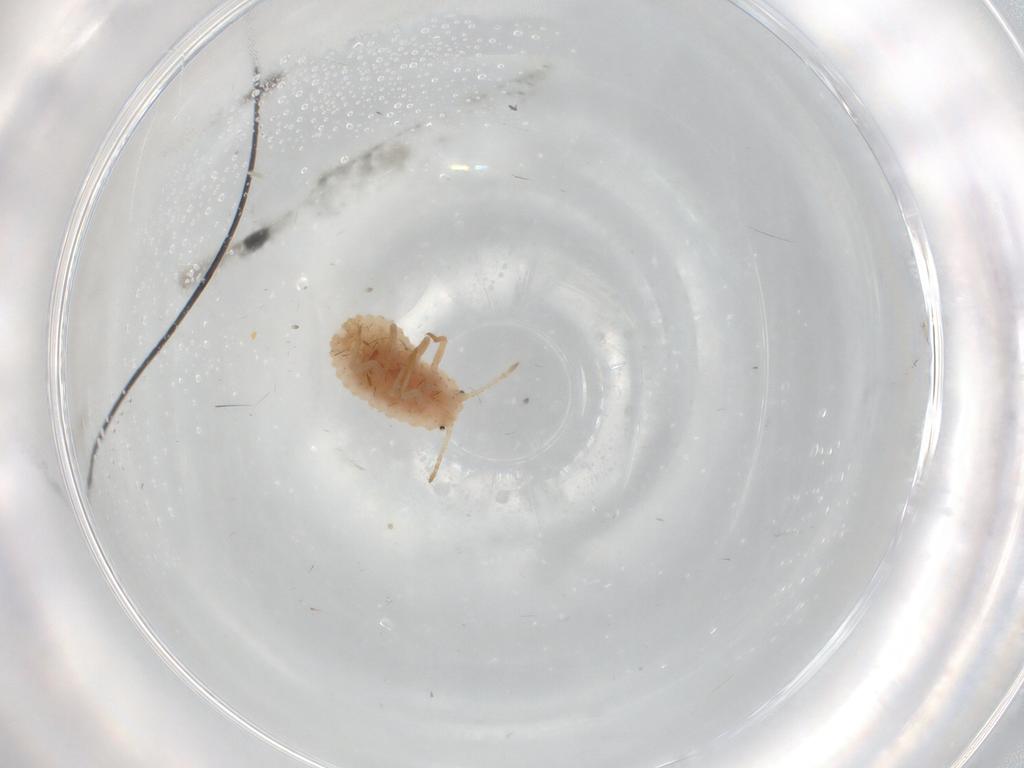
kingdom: Animalia
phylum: Arthropoda
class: Insecta
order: Hemiptera
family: Coccoidea_incertae_sedis
